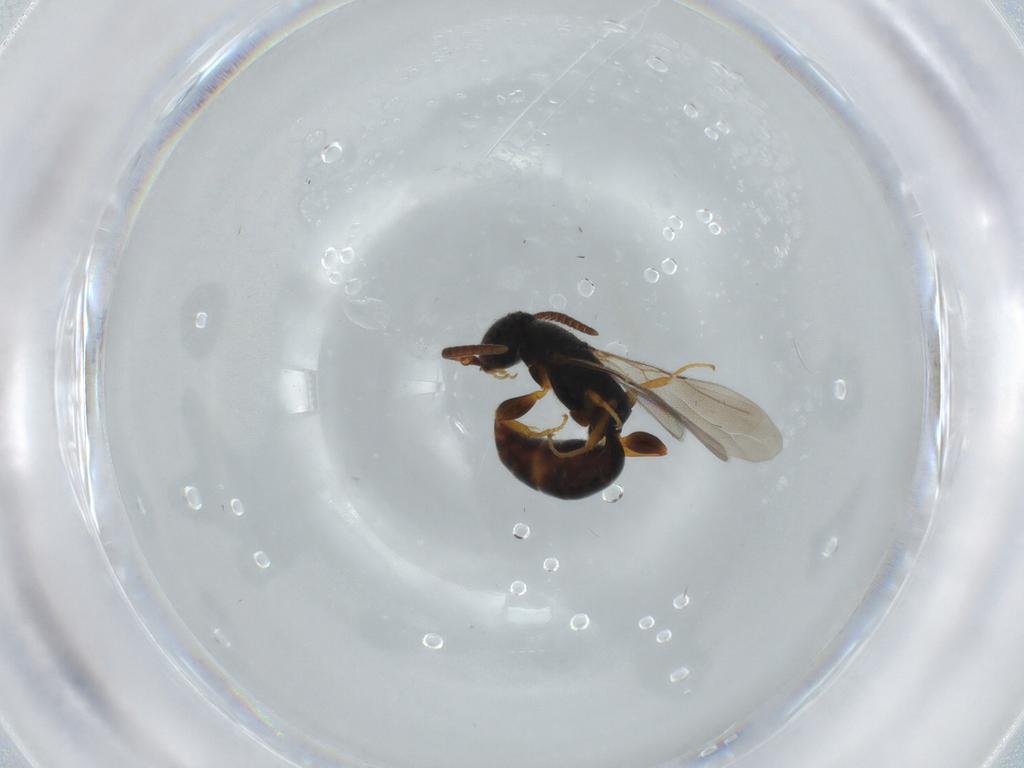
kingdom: Animalia
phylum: Arthropoda
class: Insecta
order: Hymenoptera
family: Bethylidae
